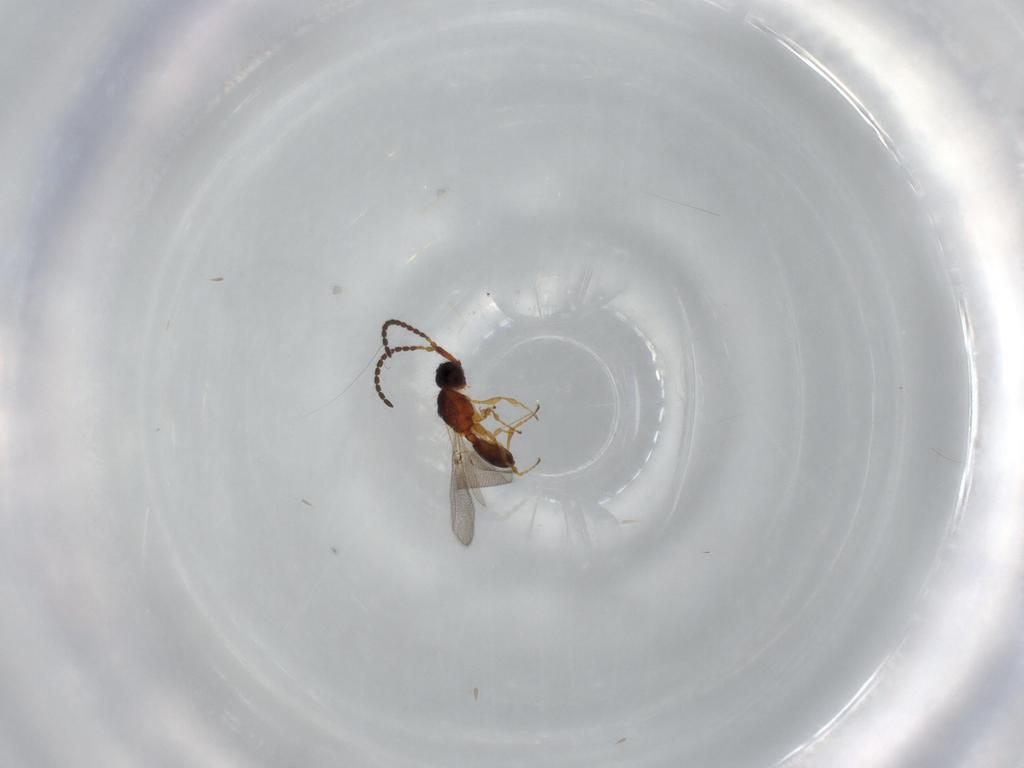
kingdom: Animalia
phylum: Arthropoda
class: Insecta
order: Hymenoptera
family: Diapriidae
